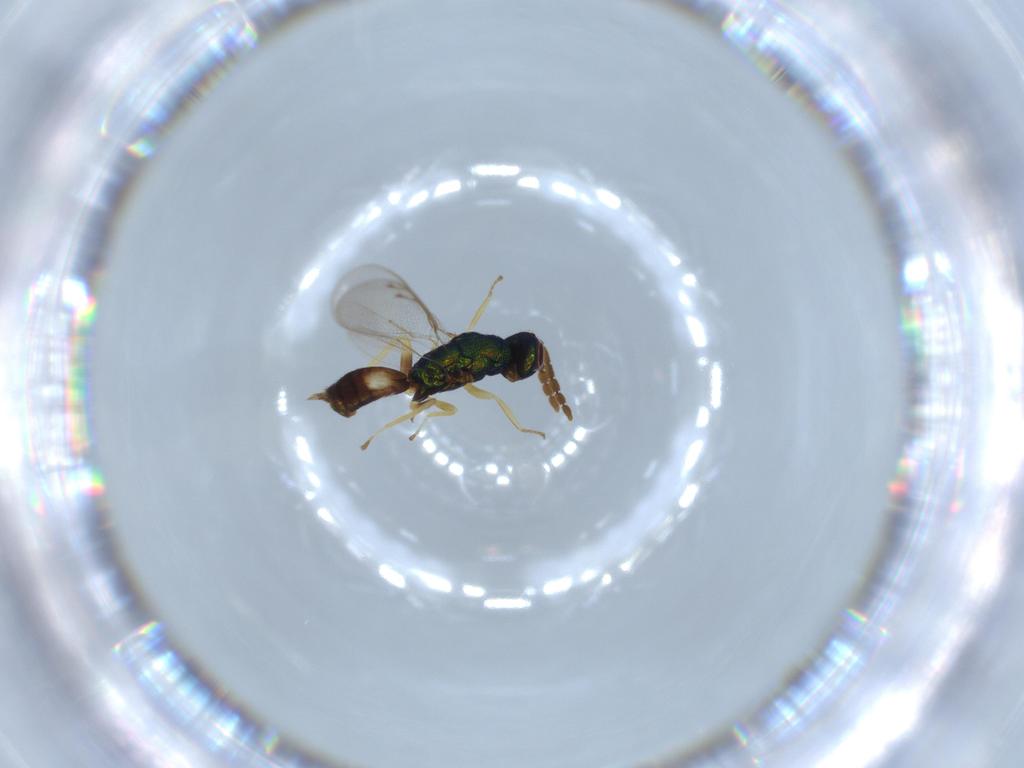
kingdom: Animalia
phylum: Arthropoda
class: Insecta
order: Hymenoptera
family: Eulophidae
